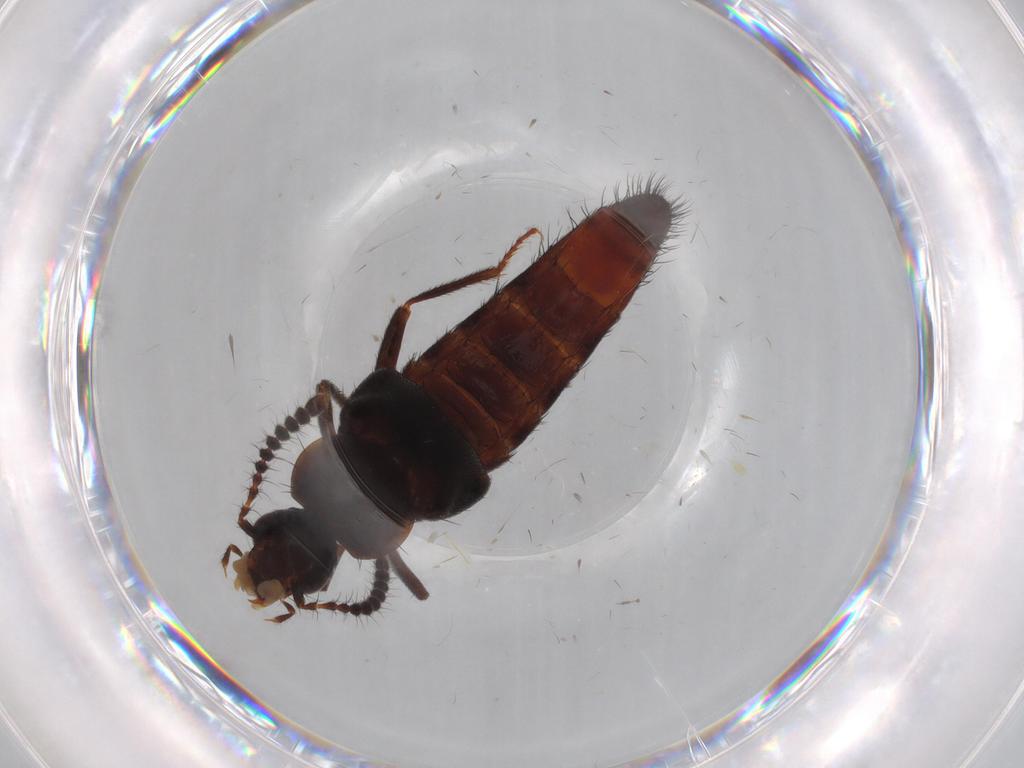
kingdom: Animalia
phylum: Arthropoda
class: Insecta
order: Coleoptera
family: Staphylinidae
